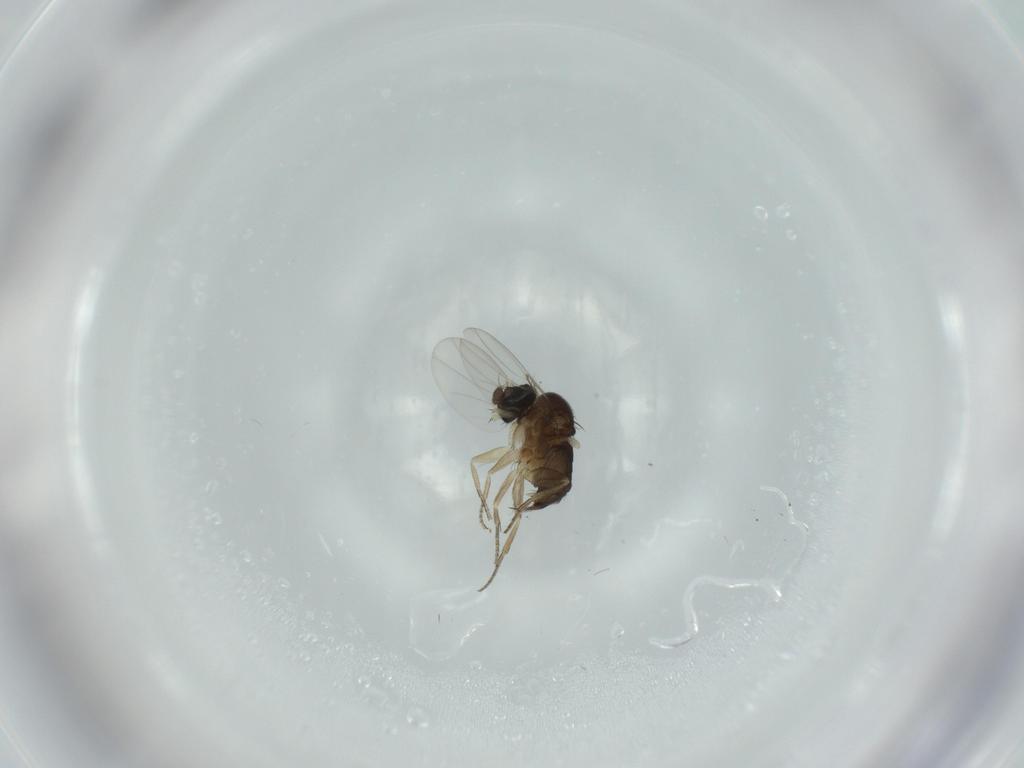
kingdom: Animalia
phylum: Arthropoda
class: Insecta
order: Diptera
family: Phoridae
